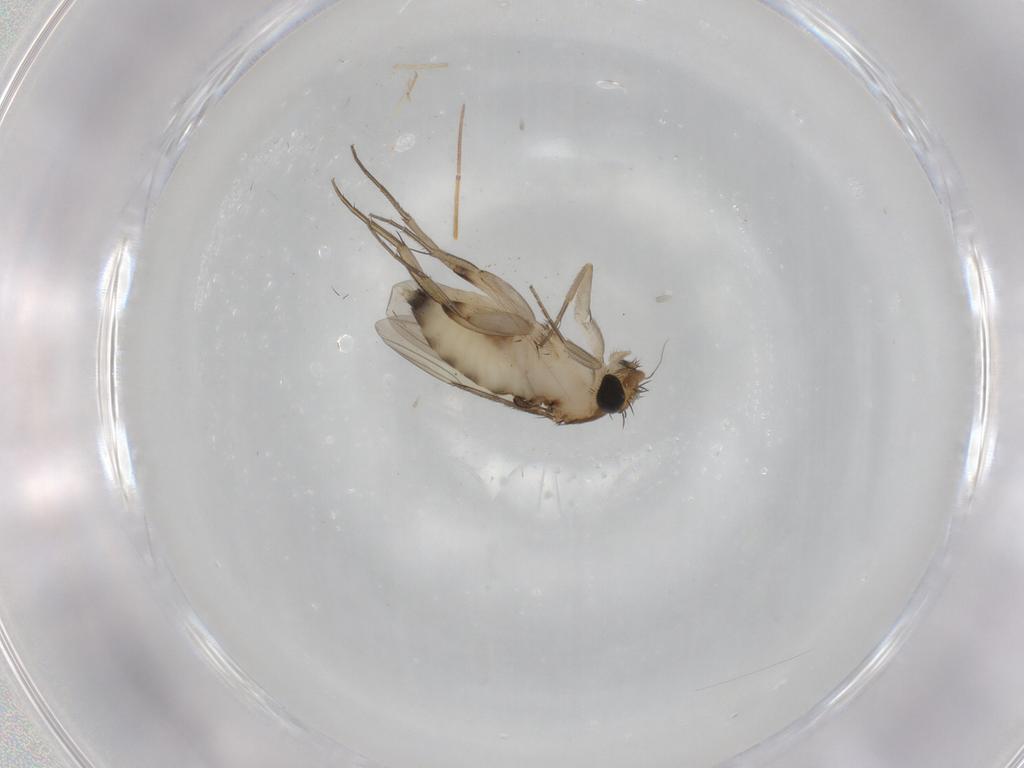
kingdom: Animalia
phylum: Arthropoda
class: Insecta
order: Diptera
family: Phoridae
